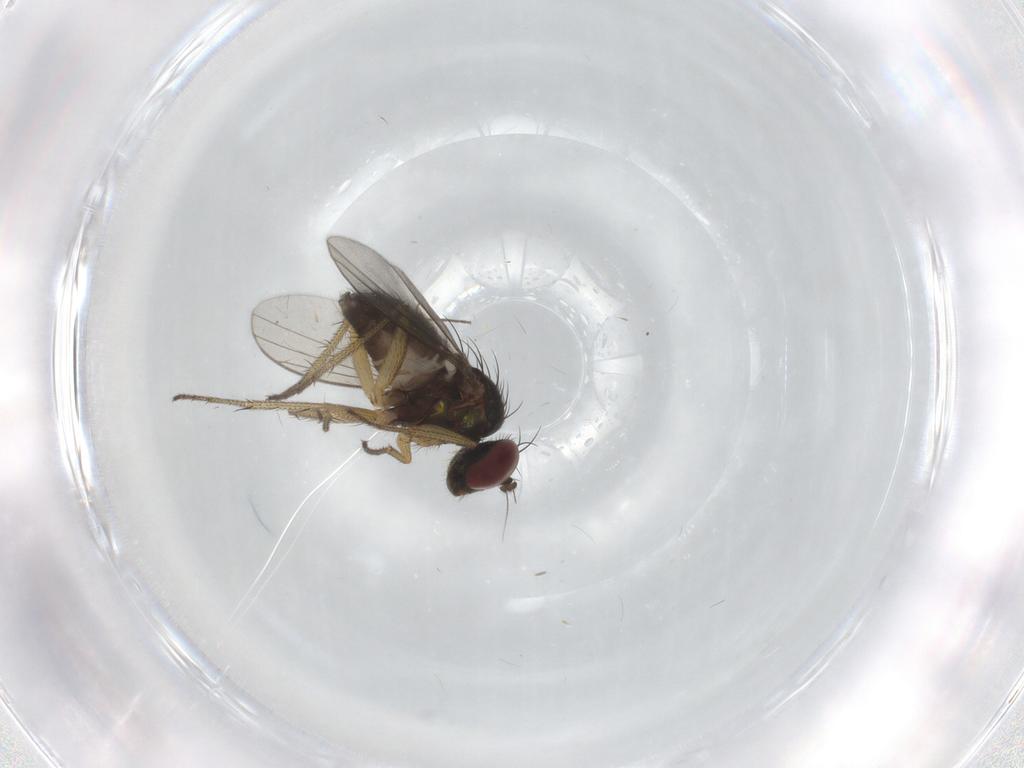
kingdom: Animalia
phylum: Arthropoda
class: Insecta
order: Diptera
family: Dolichopodidae
